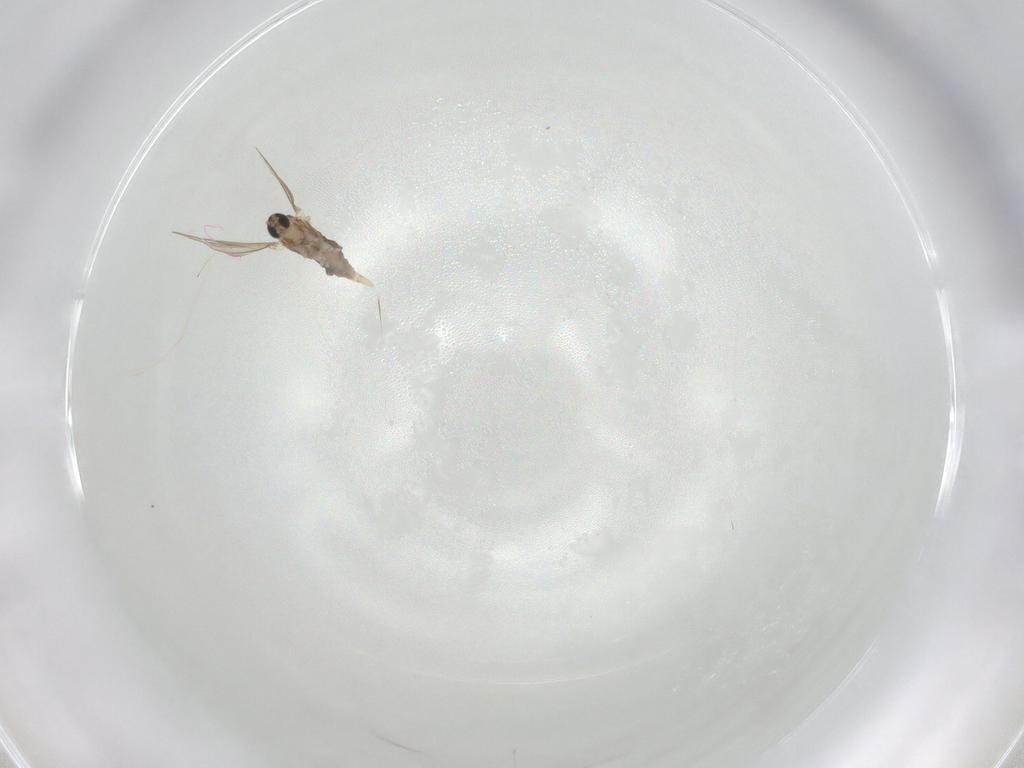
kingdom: Animalia
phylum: Arthropoda
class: Insecta
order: Diptera
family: Cecidomyiidae
